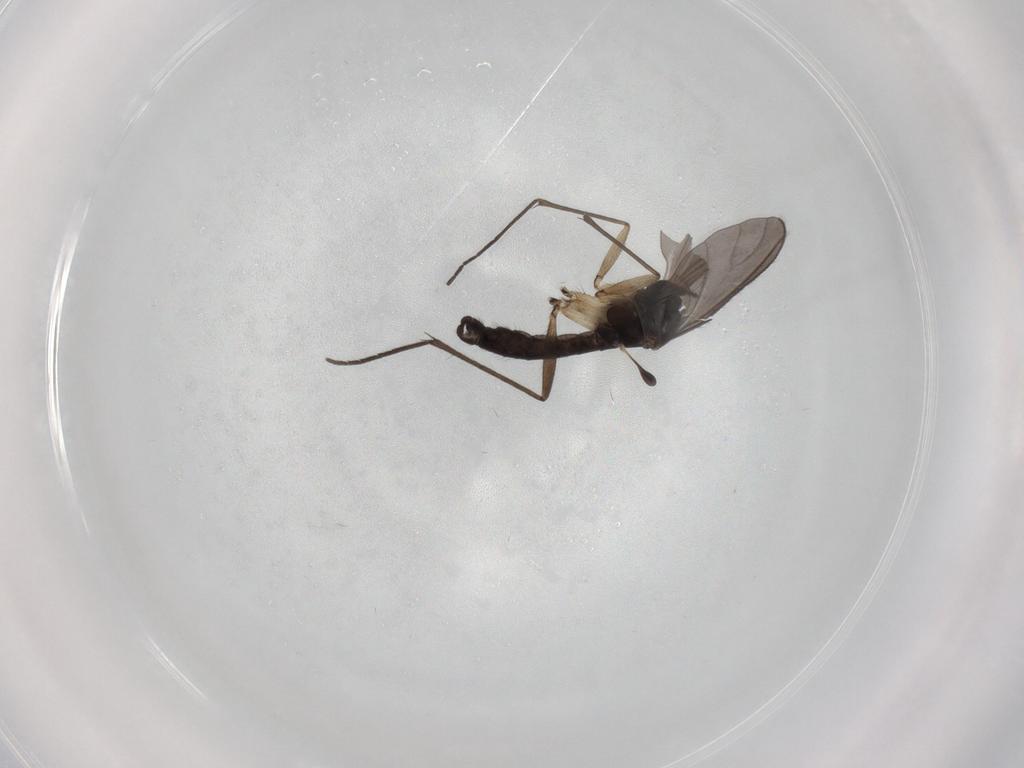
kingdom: Animalia
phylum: Arthropoda
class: Insecta
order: Diptera
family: Sciaridae
